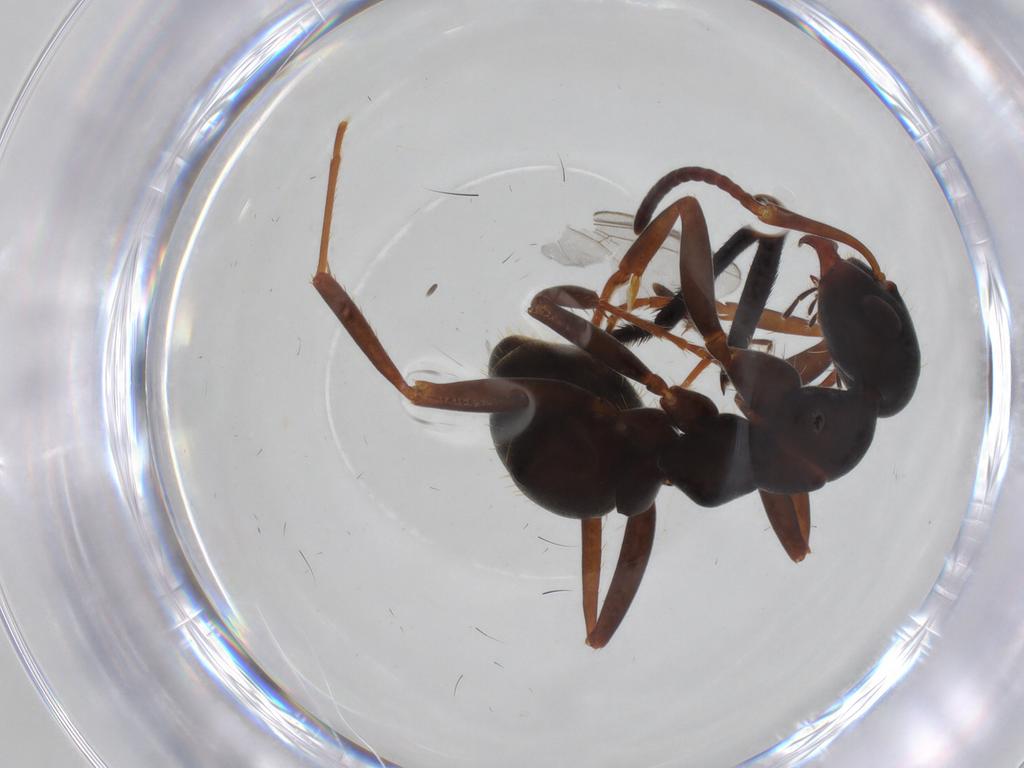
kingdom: Animalia
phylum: Arthropoda
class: Insecta
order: Hymenoptera
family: Formicidae
